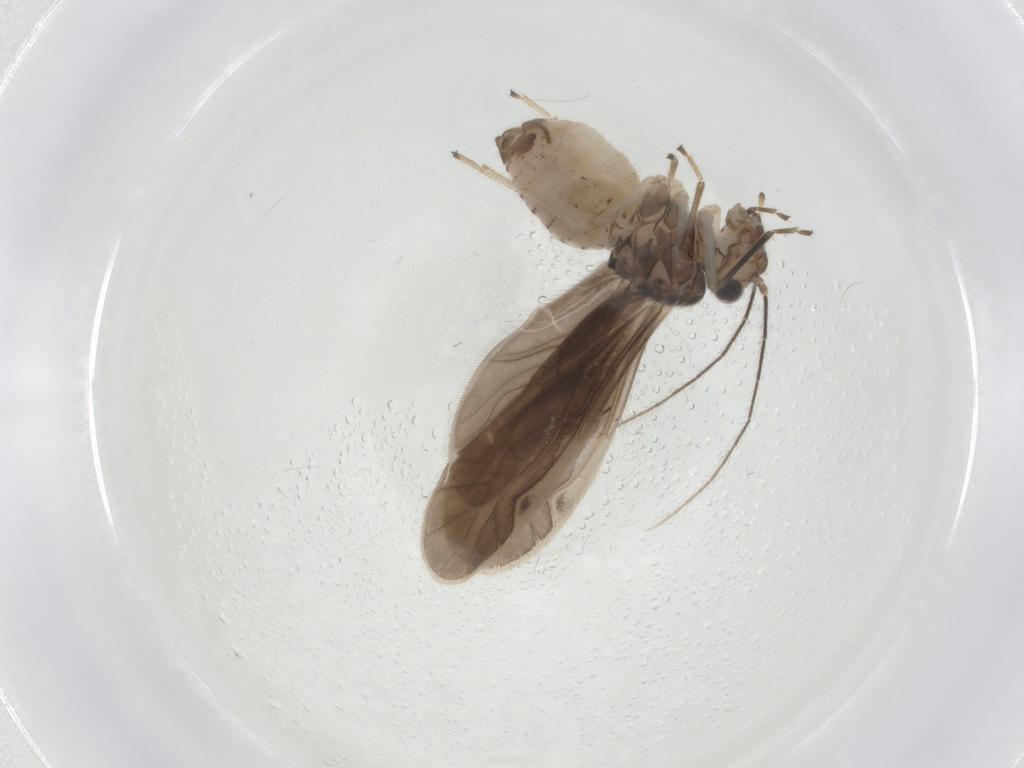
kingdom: Animalia
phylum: Arthropoda
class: Insecta
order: Psocodea
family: Caeciliusidae
